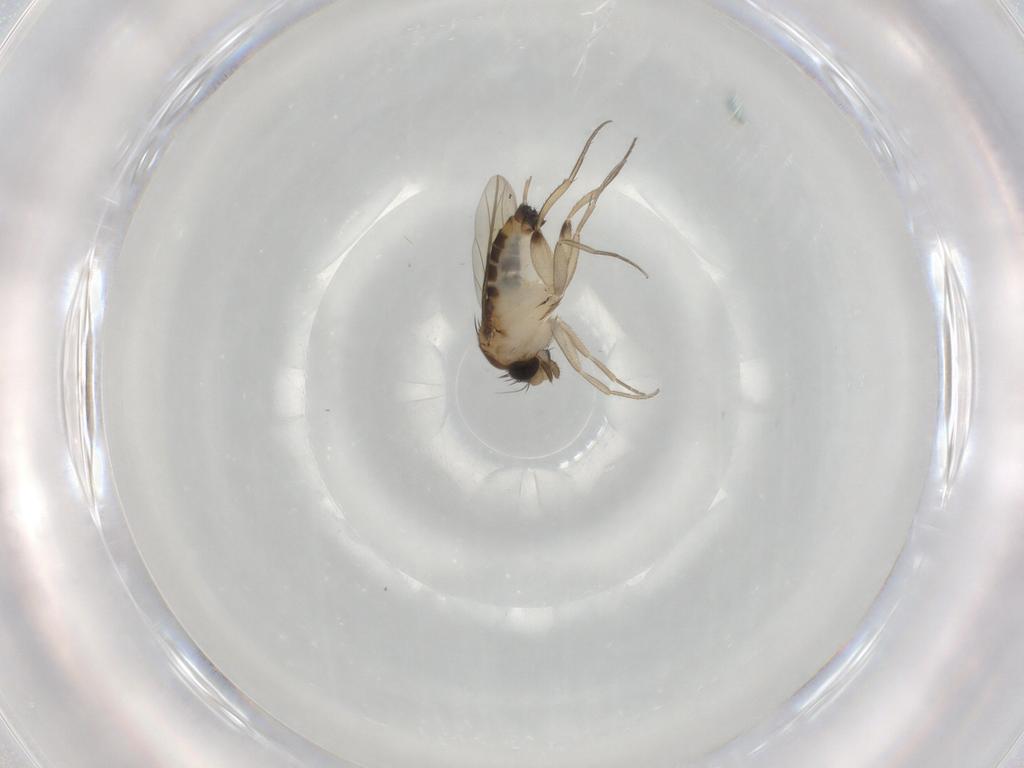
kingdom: Animalia
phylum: Arthropoda
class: Insecta
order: Diptera
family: Phoridae
